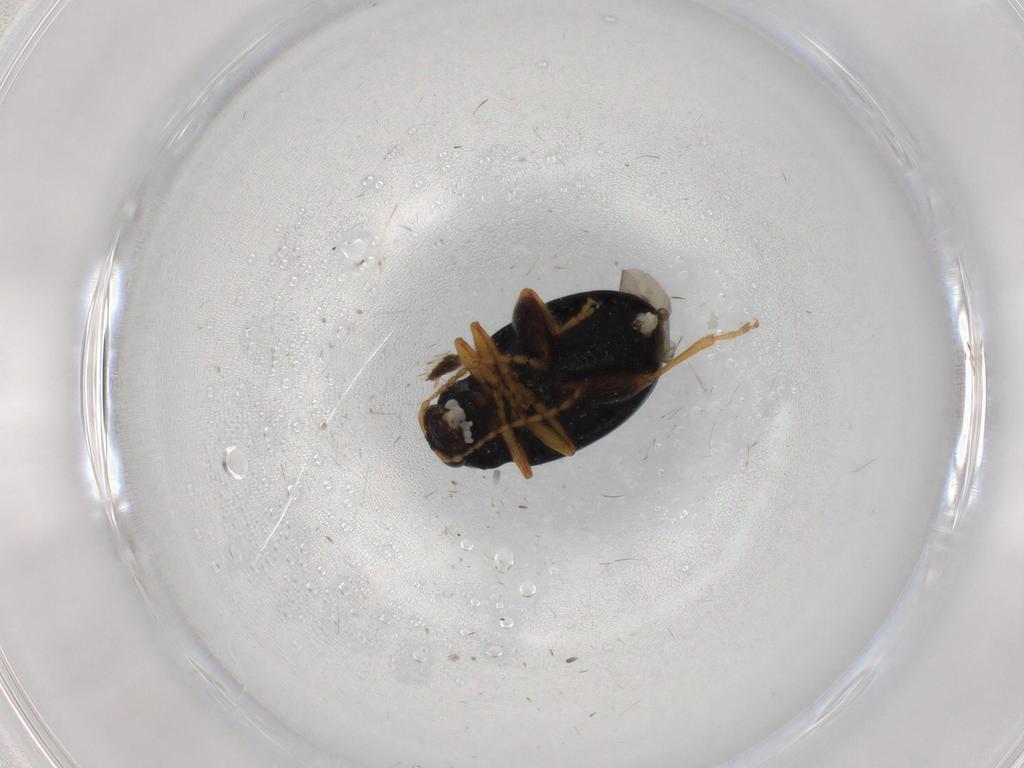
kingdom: Animalia
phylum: Arthropoda
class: Insecta
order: Coleoptera
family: Chrysomelidae
